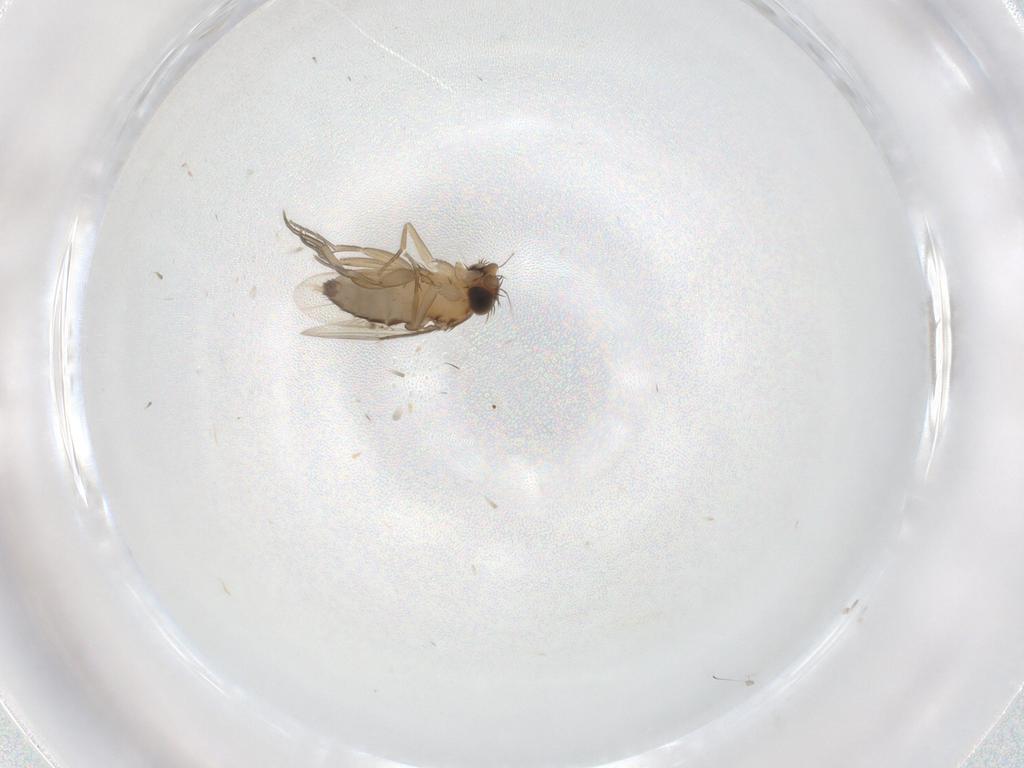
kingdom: Animalia
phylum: Arthropoda
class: Insecta
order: Diptera
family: Phoridae
